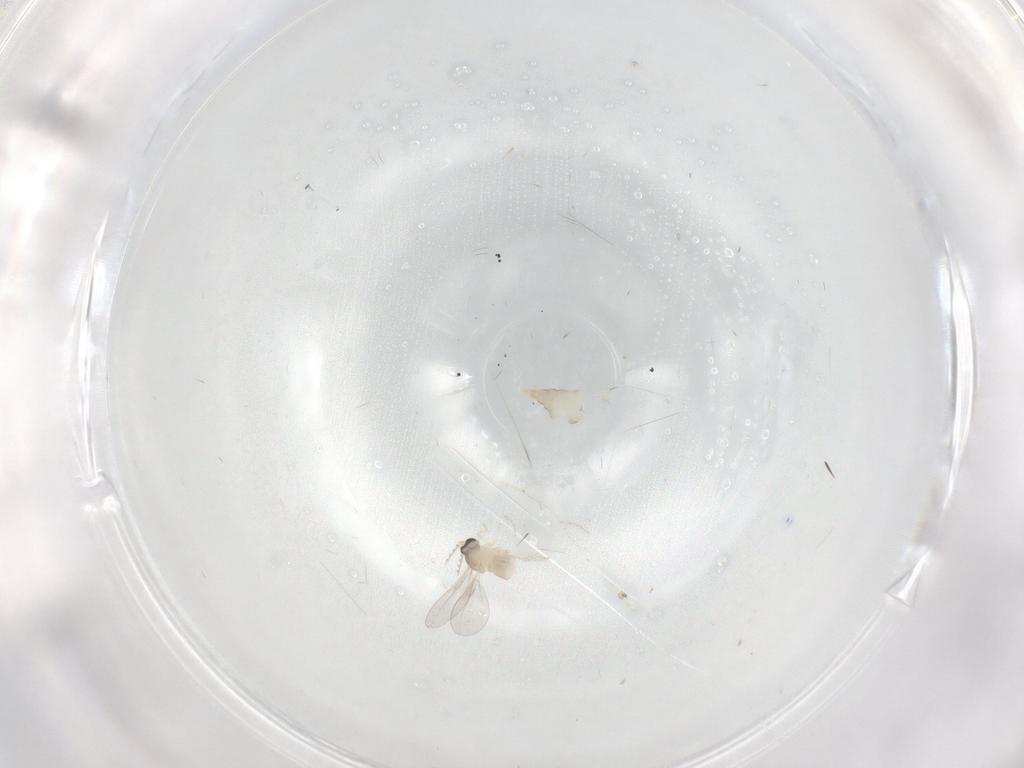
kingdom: Animalia
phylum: Arthropoda
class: Insecta
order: Diptera
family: Cecidomyiidae
